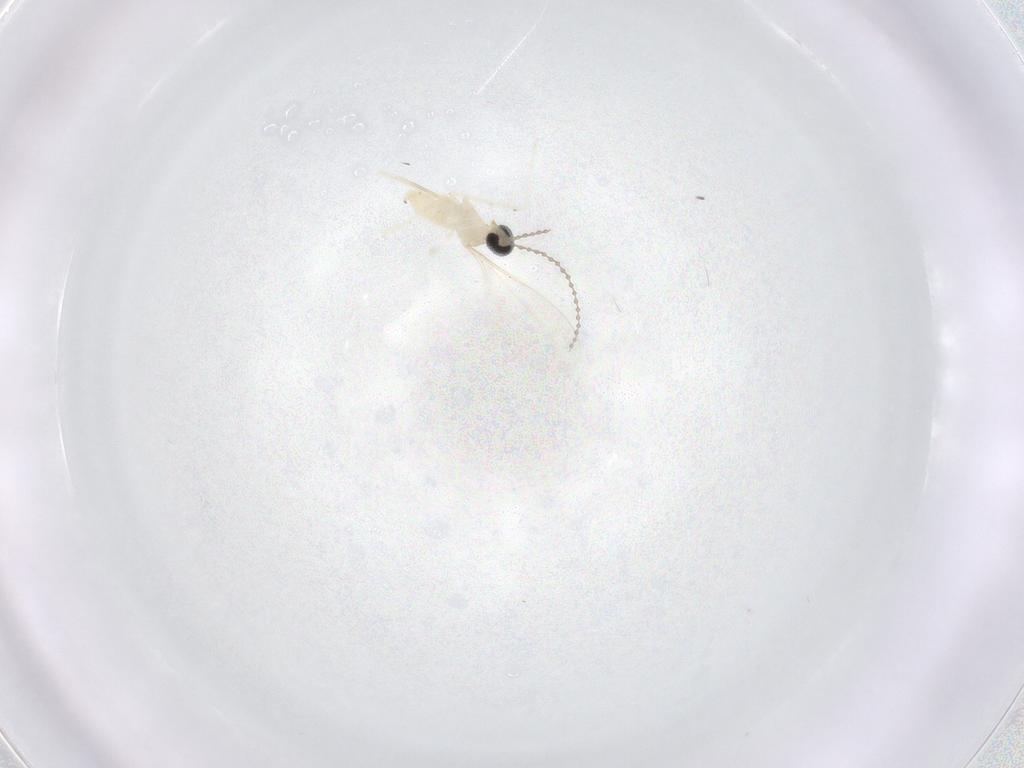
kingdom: Animalia
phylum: Arthropoda
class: Insecta
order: Diptera
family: Cecidomyiidae
